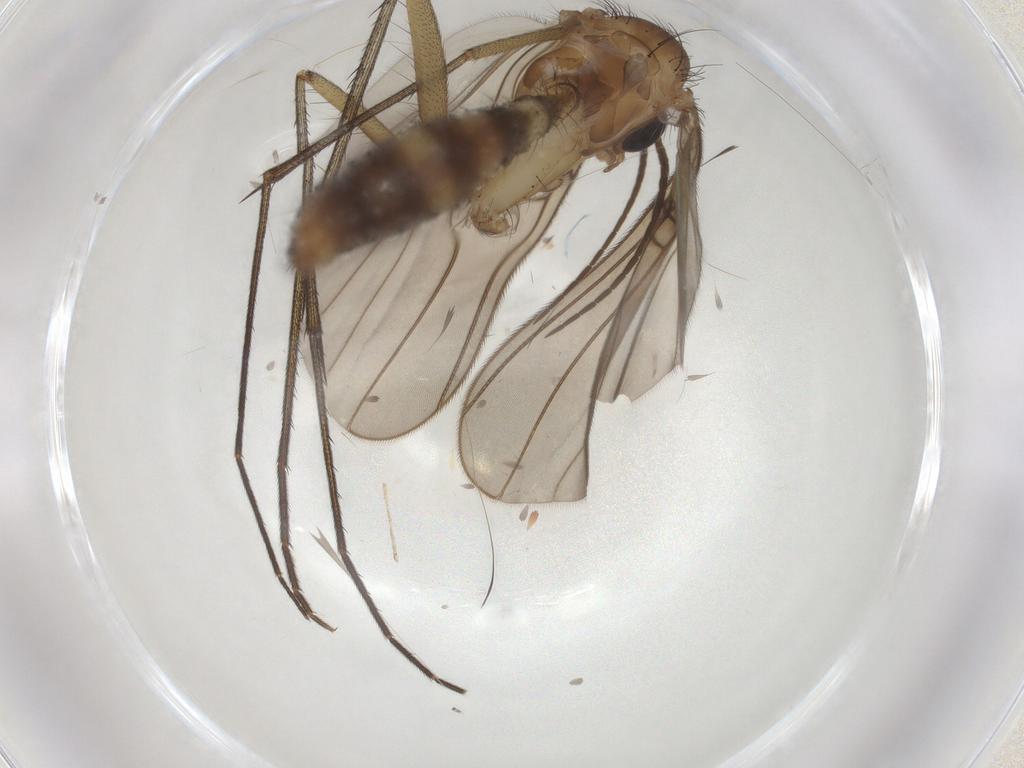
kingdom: Animalia
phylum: Arthropoda
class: Insecta
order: Diptera
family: Mycetophilidae
